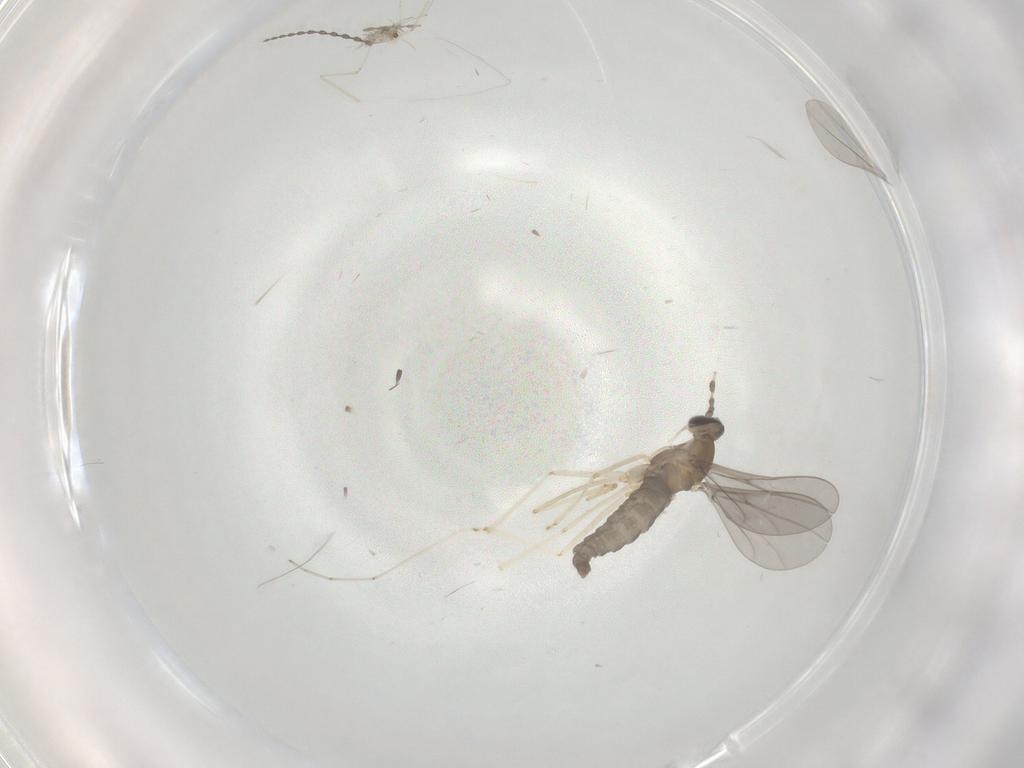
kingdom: Animalia
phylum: Arthropoda
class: Insecta
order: Diptera
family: Cecidomyiidae
